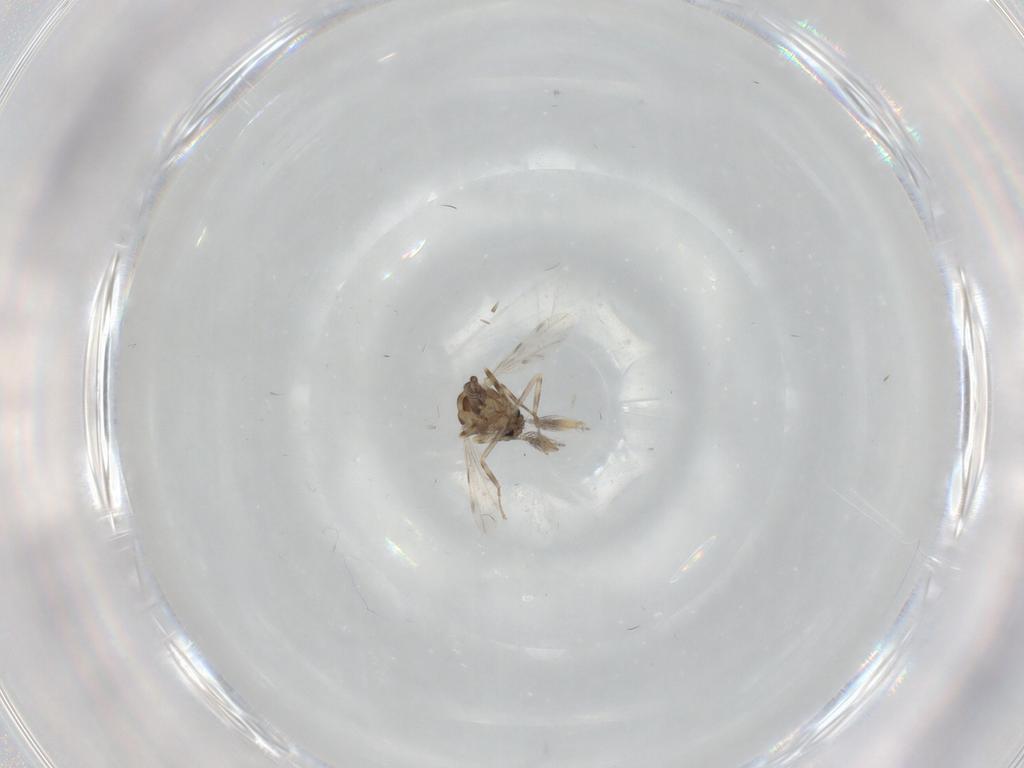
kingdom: Animalia
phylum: Arthropoda
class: Insecta
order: Diptera
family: Ceratopogonidae
